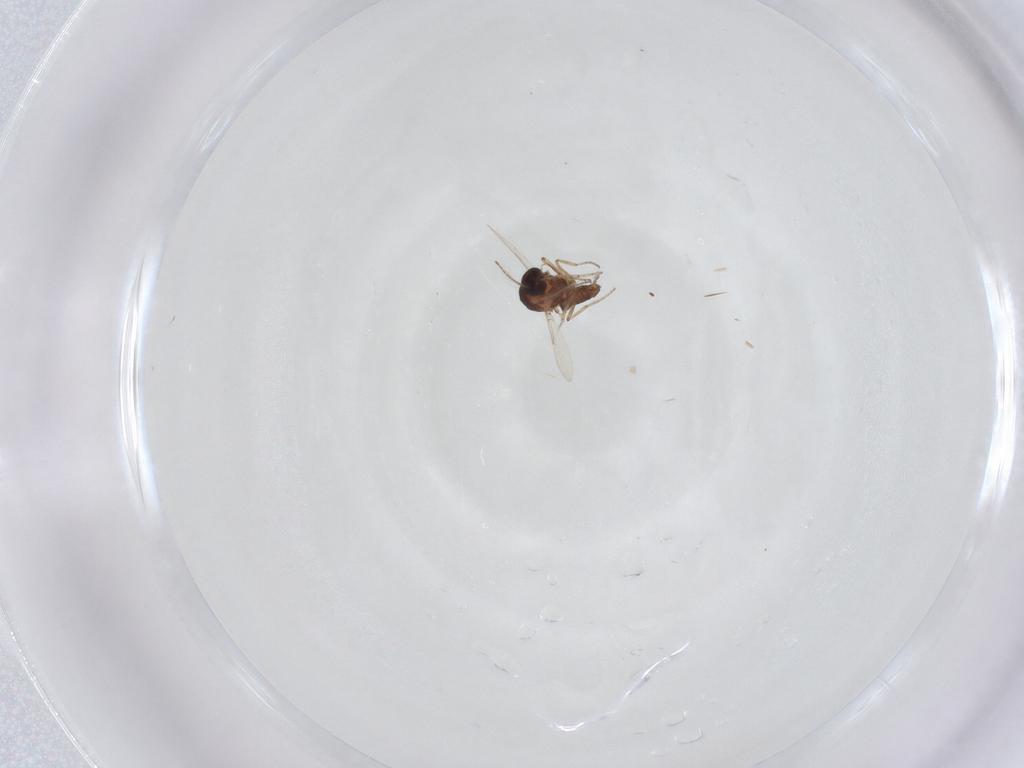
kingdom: Animalia
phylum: Arthropoda
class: Insecta
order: Diptera
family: Ceratopogonidae
